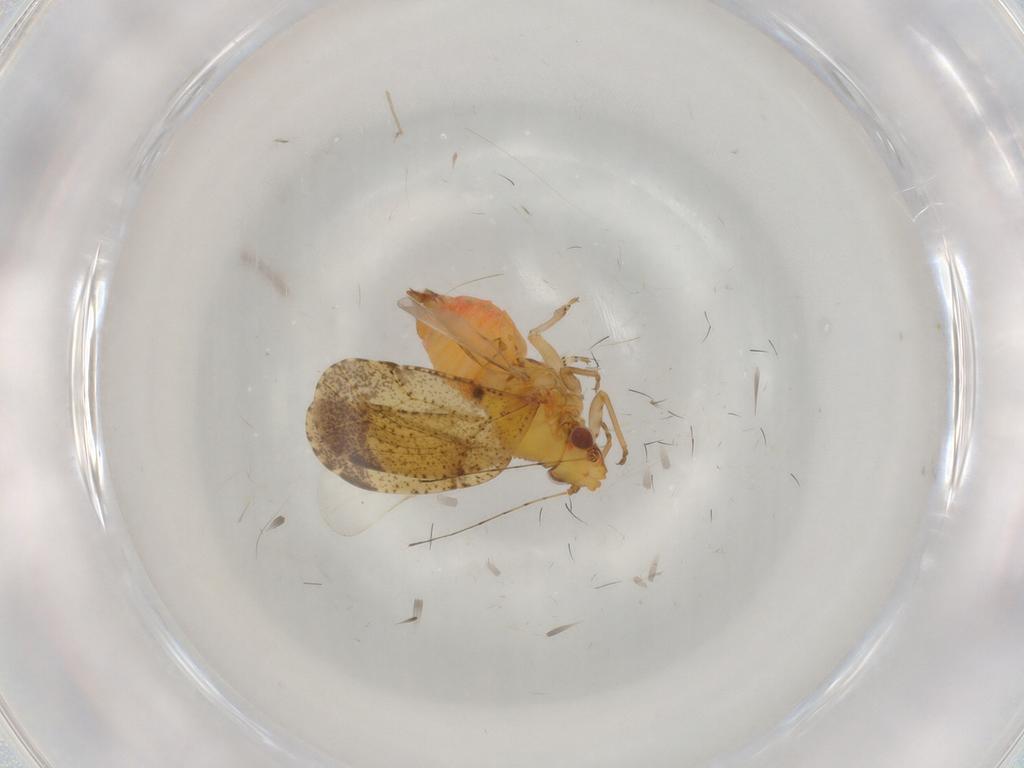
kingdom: Animalia
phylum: Arthropoda
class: Insecta
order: Hemiptera
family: Psyllidae
